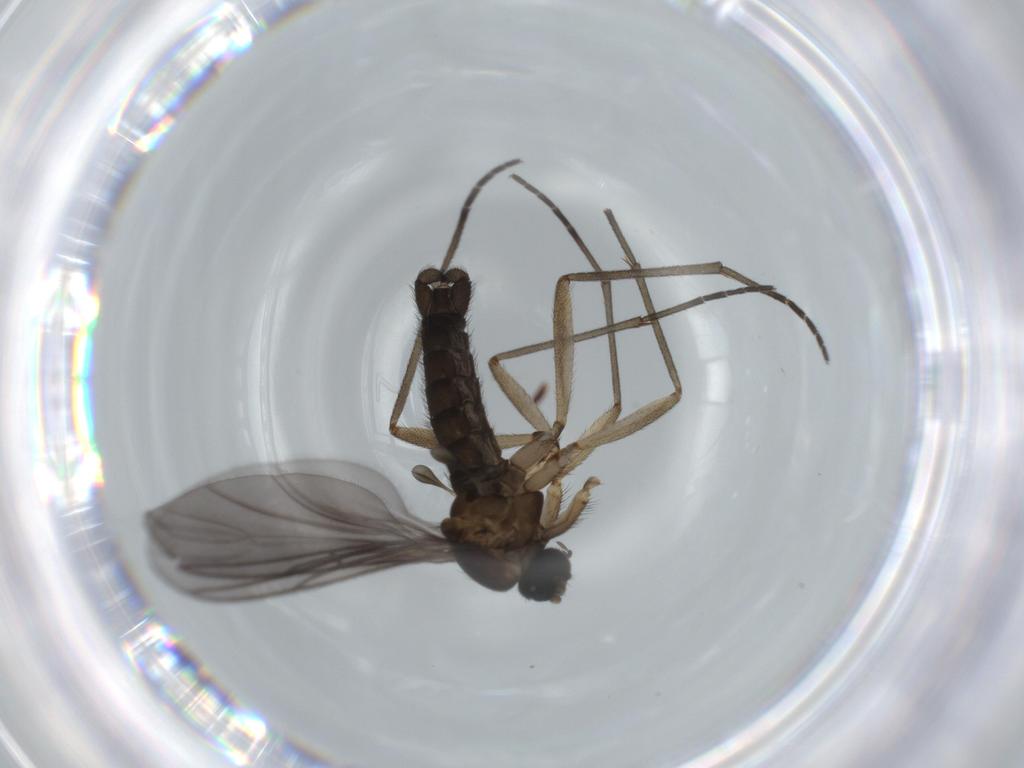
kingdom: Animalia
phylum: Arthropoda
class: Insecta
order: Diptera
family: Sciaridae
